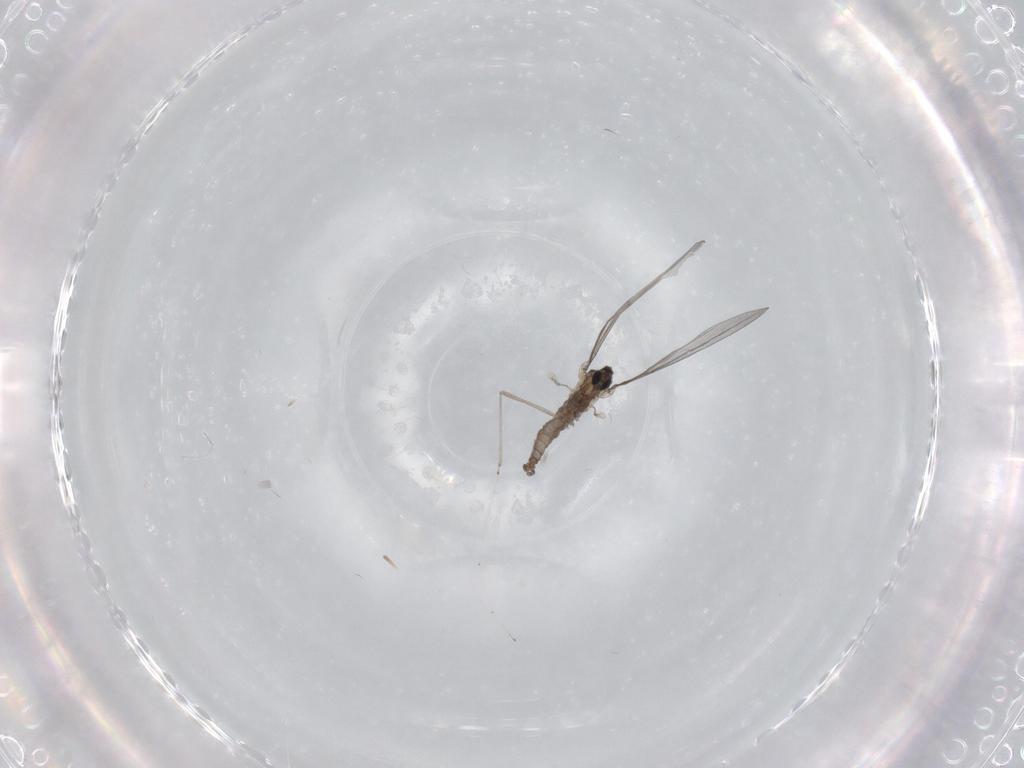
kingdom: Animalia
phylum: Arthropoda
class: Insecta
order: Diptera
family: Cecidomyiidae
